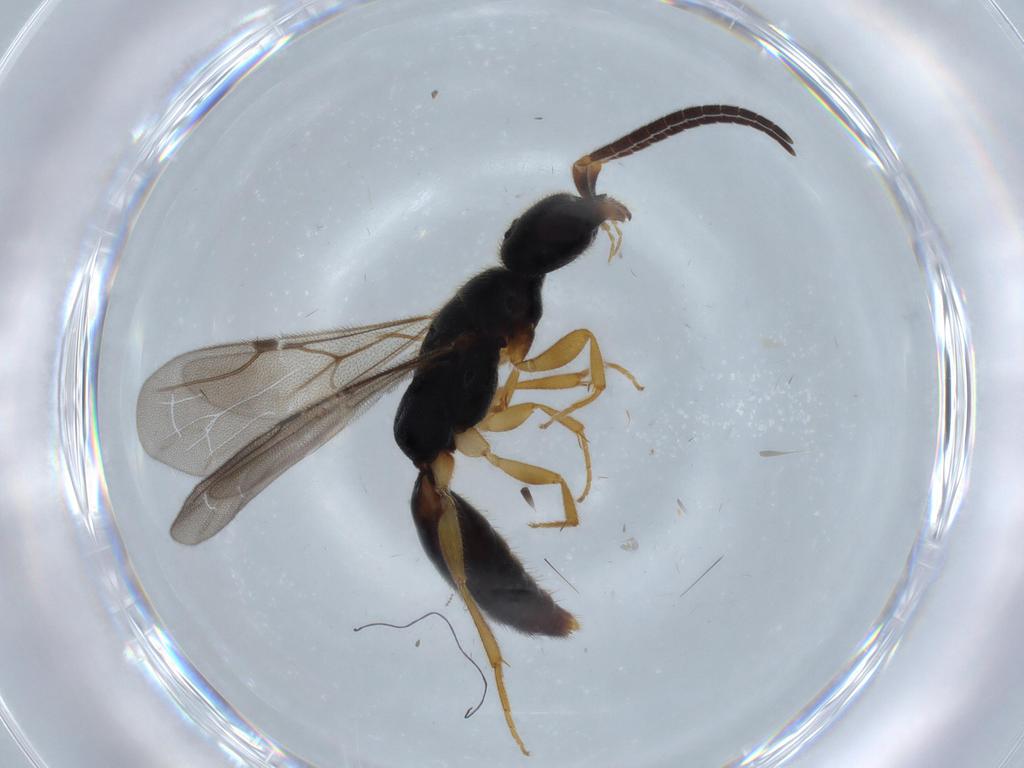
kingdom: Animalia
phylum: Arthropoda
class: Insecta
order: Hymenoptera
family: Bethylidae
